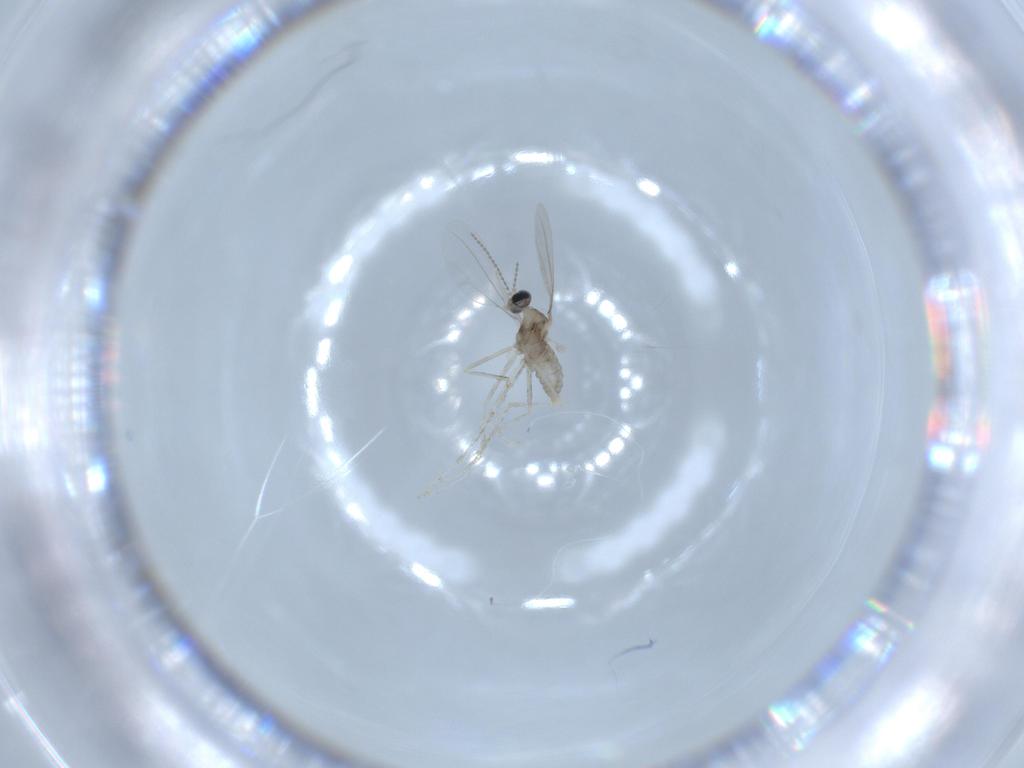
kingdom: Animalia
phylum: Arthropoda
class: Insecta
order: Diptera
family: Cecidomyiidae
